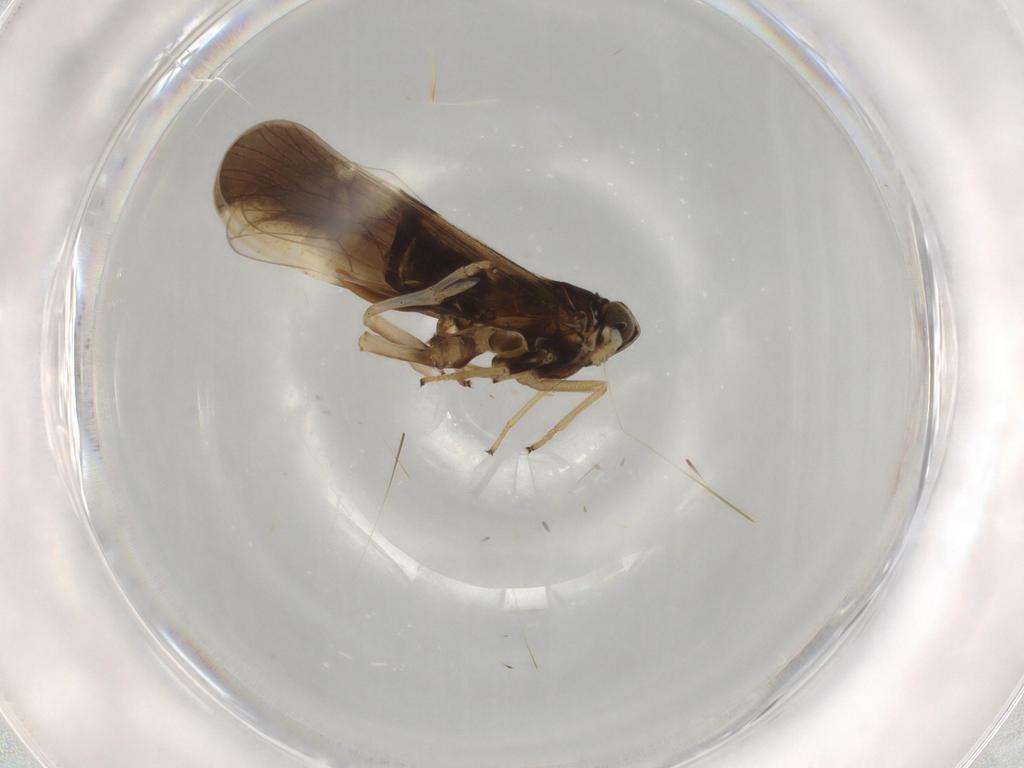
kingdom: Animalia
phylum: Arthropoda
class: Insecta
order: Hemiptera
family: Delphacidae
